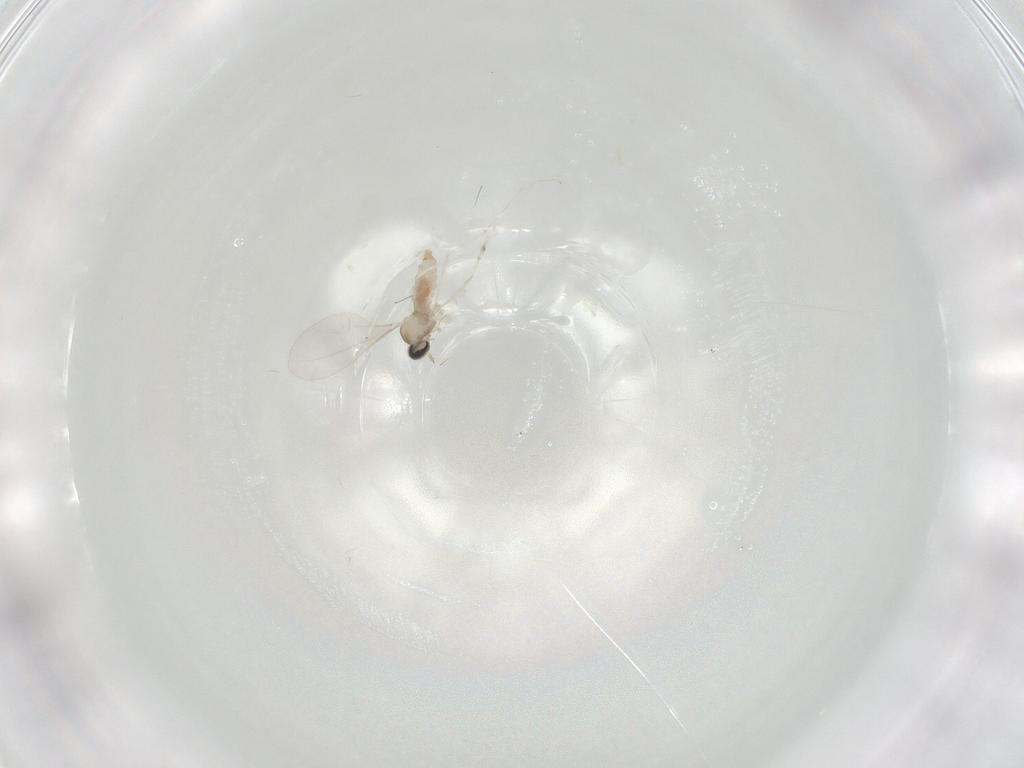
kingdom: Animalia
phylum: Arthropoda
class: Insecta
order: Diptera
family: Cecidomyiidae
